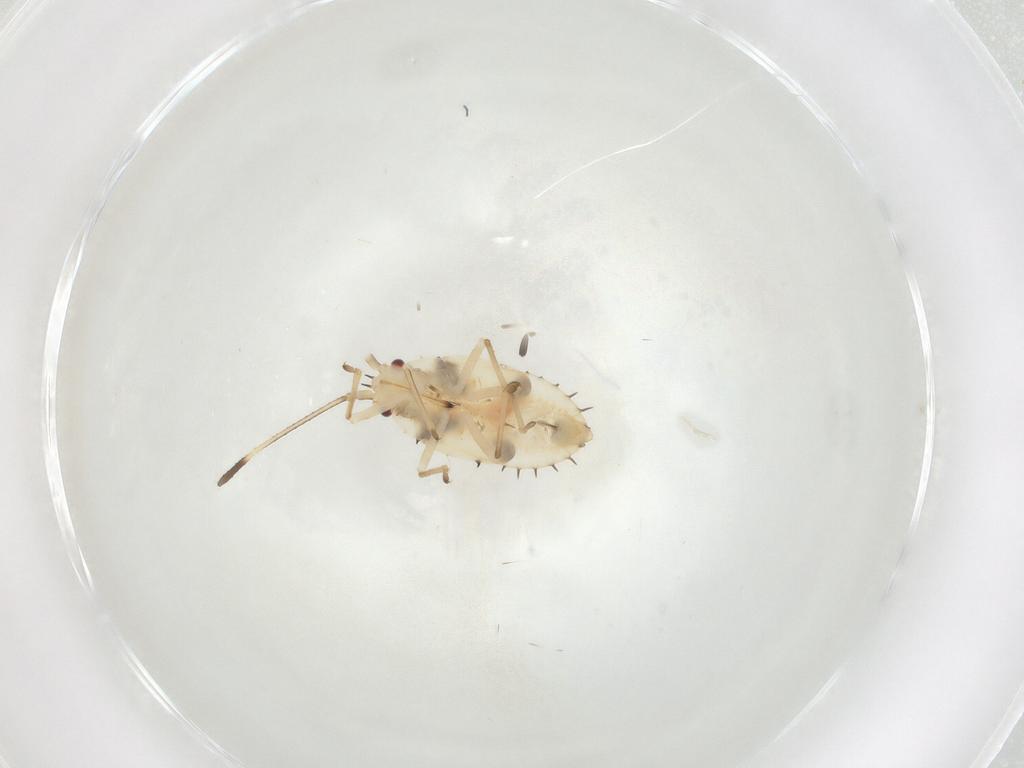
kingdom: Animalia
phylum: Arthropoda
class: Insecta
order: Hemiptera
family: Tingidae
